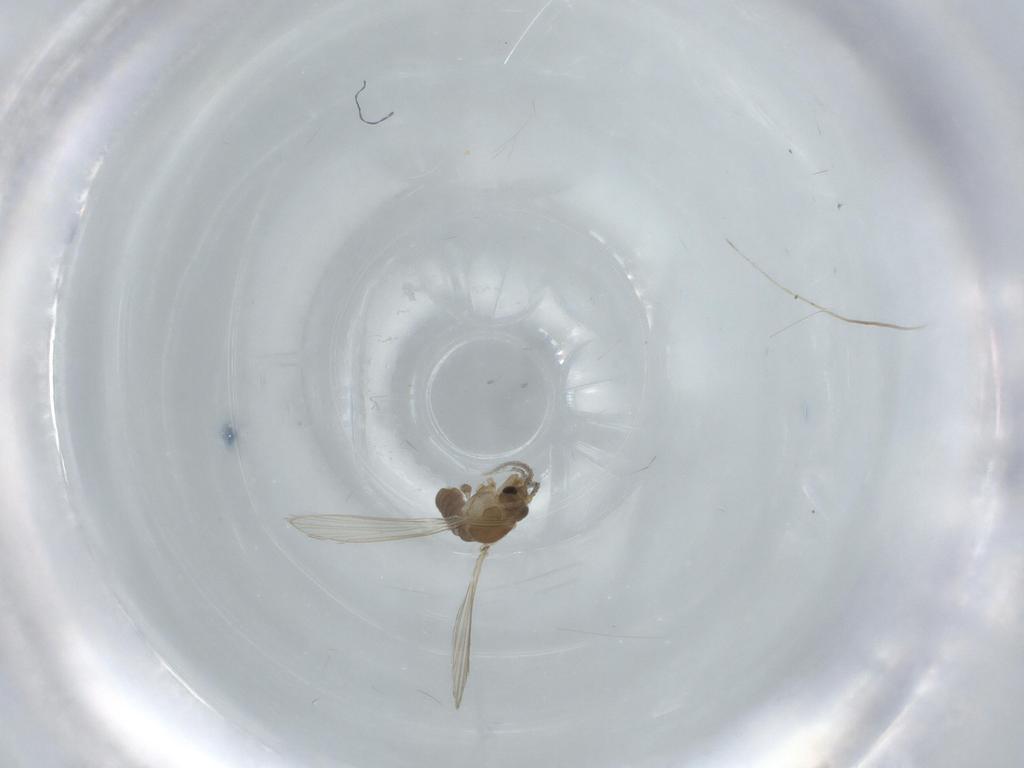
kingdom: Animalia
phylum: Arthropoda
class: Insecta
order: Diptera
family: Psychodidae
